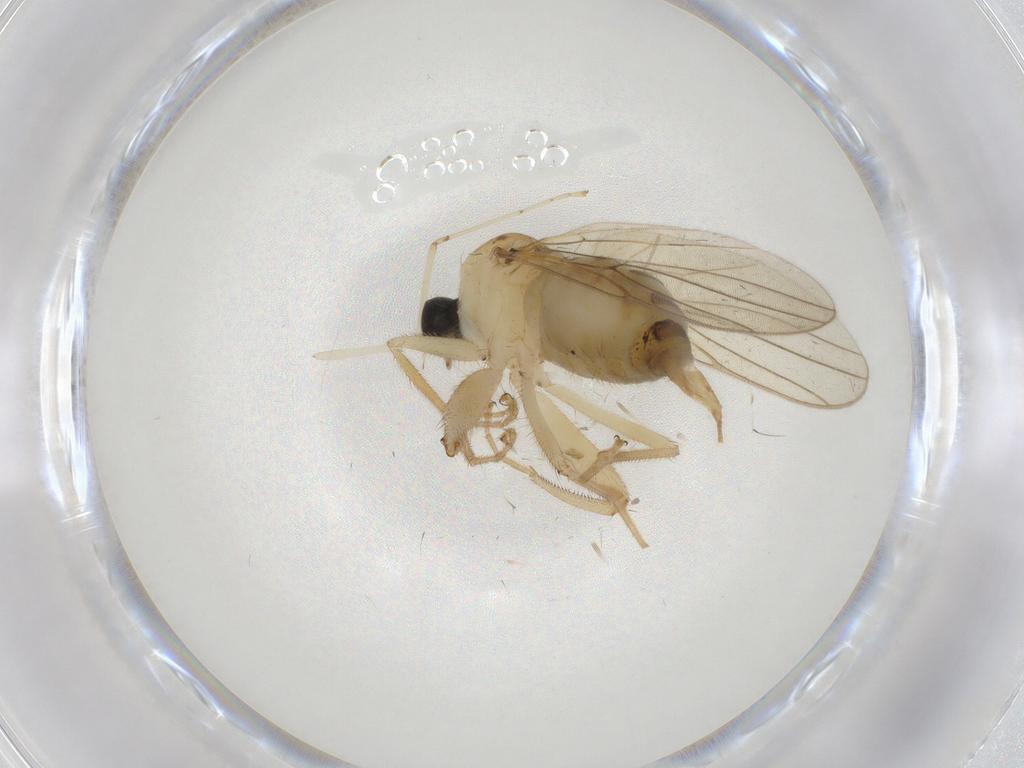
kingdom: Animalia
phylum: Arthropoda
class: Insecta
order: Diptera
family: Hybotidae
